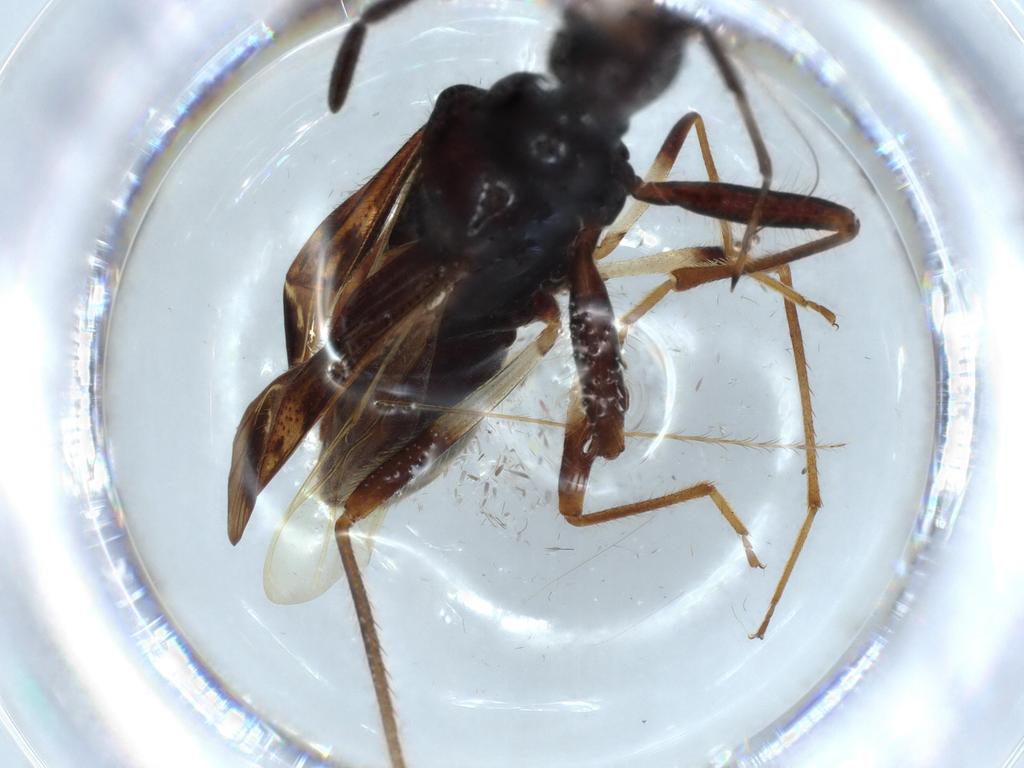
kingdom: Animalia
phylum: Arthropoda
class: Insecta
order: Hemiptera
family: Rhyparochromidae
